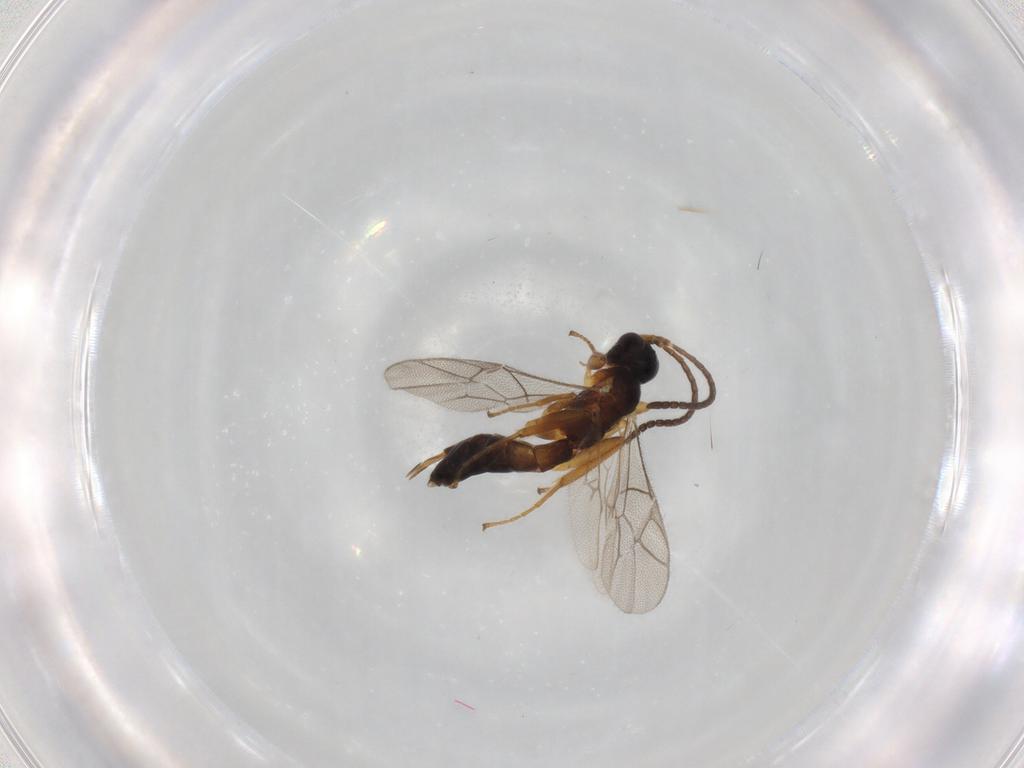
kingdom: Animalia
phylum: Arthropoda
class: Insecta
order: Hymenoptera
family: Ichneumonidae
